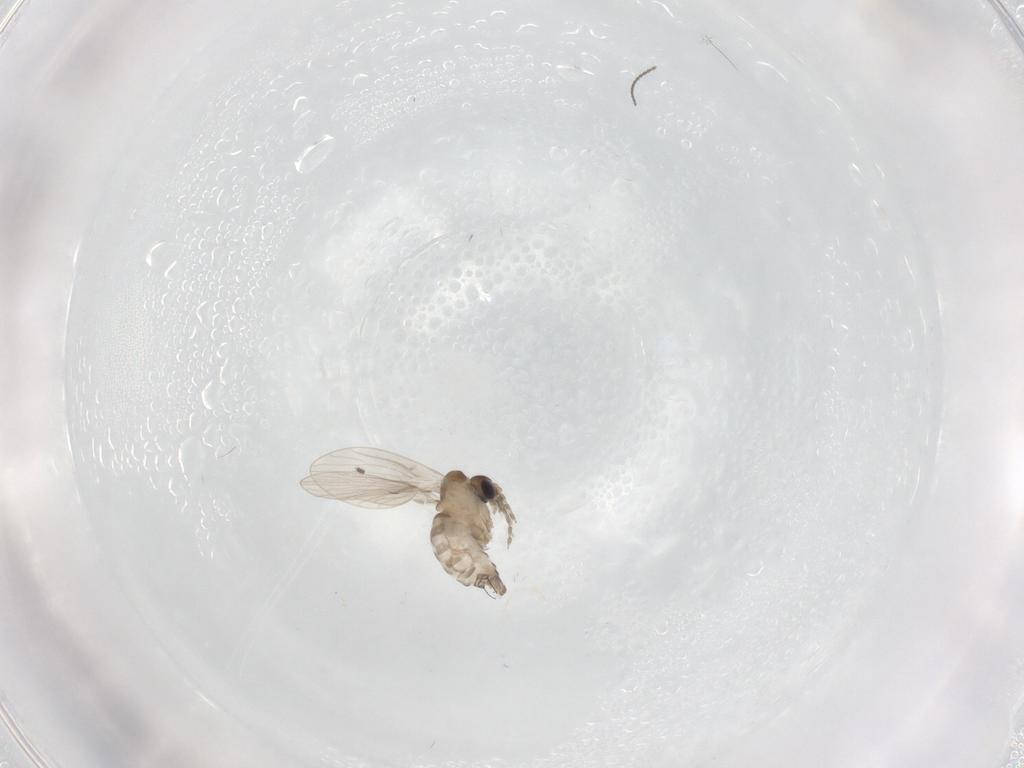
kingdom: Animalia
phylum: Arthropoda
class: Insecta
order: Diptera
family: Sciaridae
